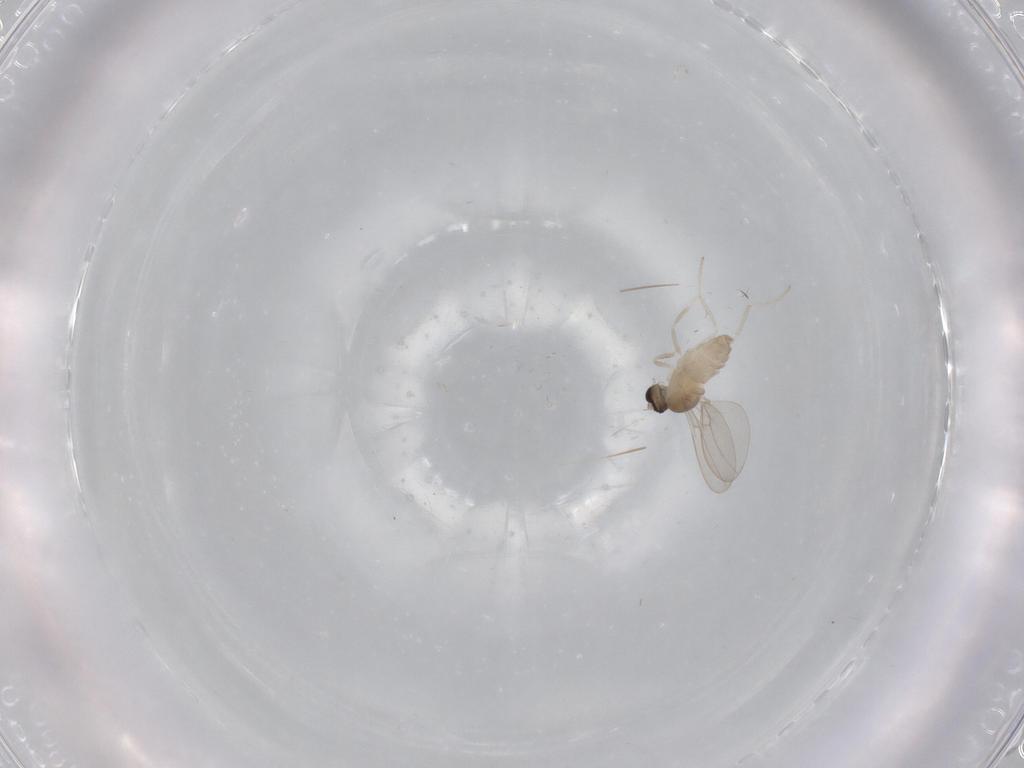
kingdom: Animalia
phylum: Arthropoda
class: Insecta
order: Diptera
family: Cecidomyiidae
